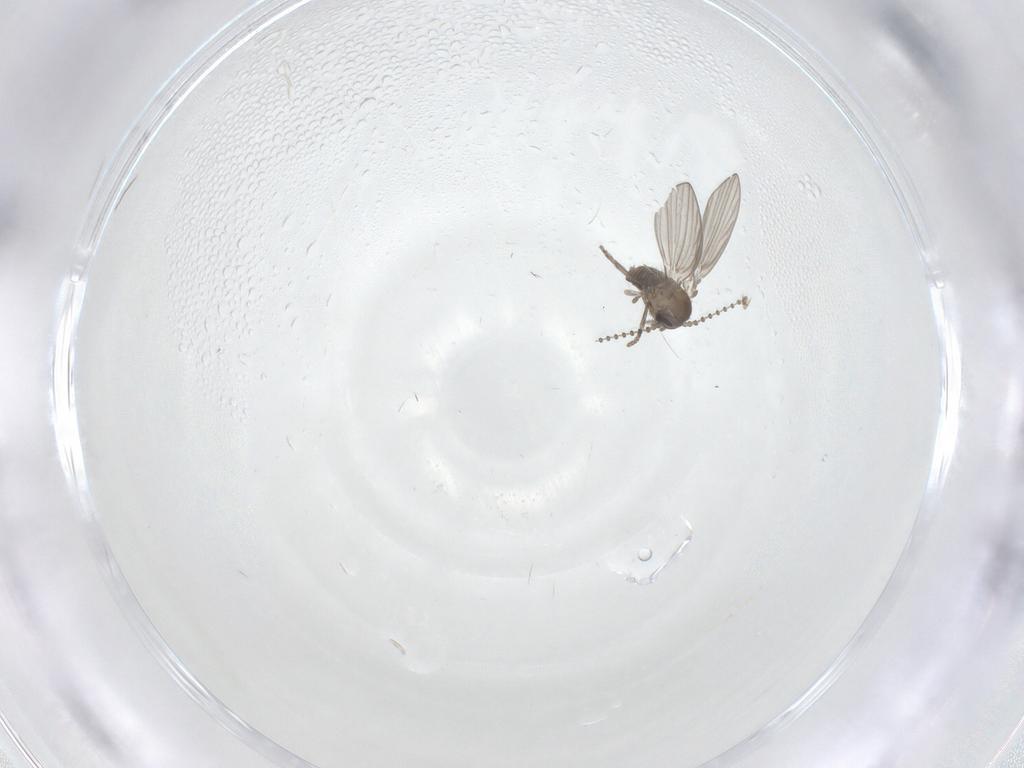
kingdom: Animalia
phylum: Arthropoda
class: Insecta
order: Diptera
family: Psychodidae
